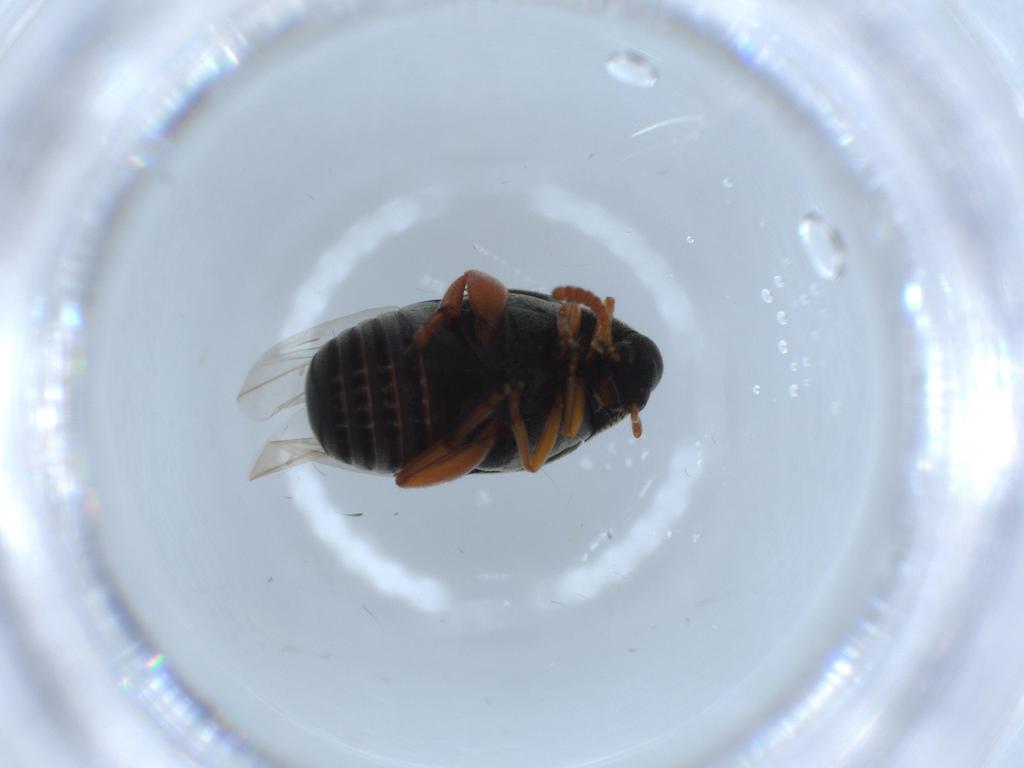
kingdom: Animalia
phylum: Arthropoda
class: Insecta
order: Coleoptera
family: Chrysomelidae
